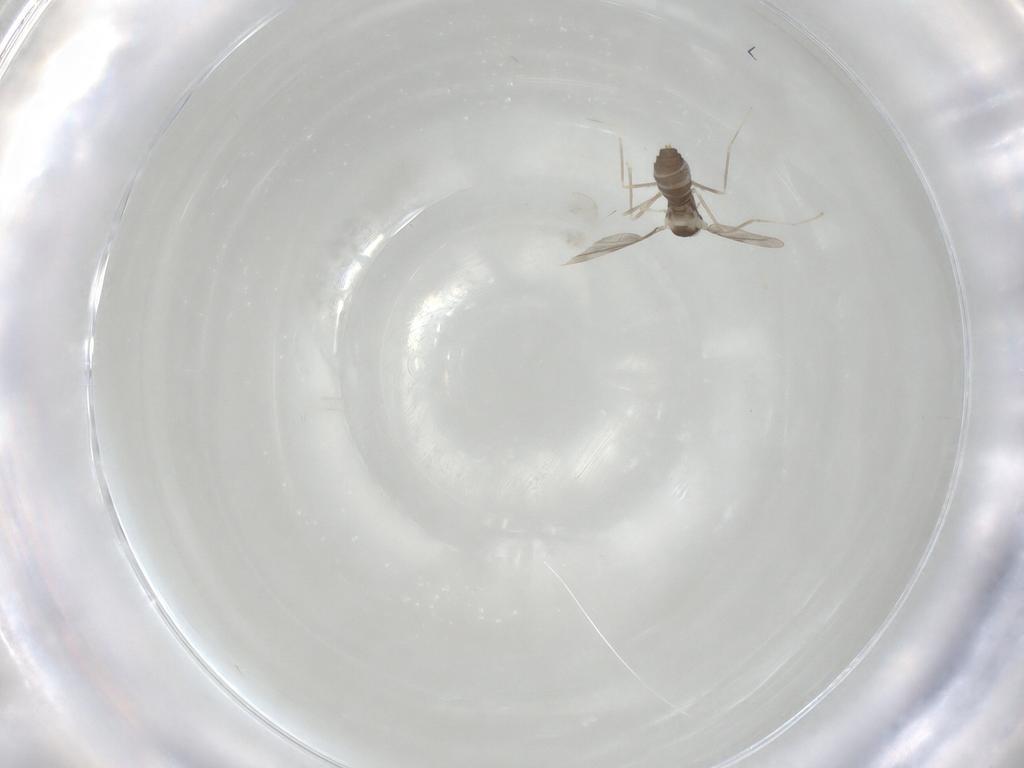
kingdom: Animalia
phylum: Arthropoda
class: Insecta
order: Diptera
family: Cecidomyiidae
